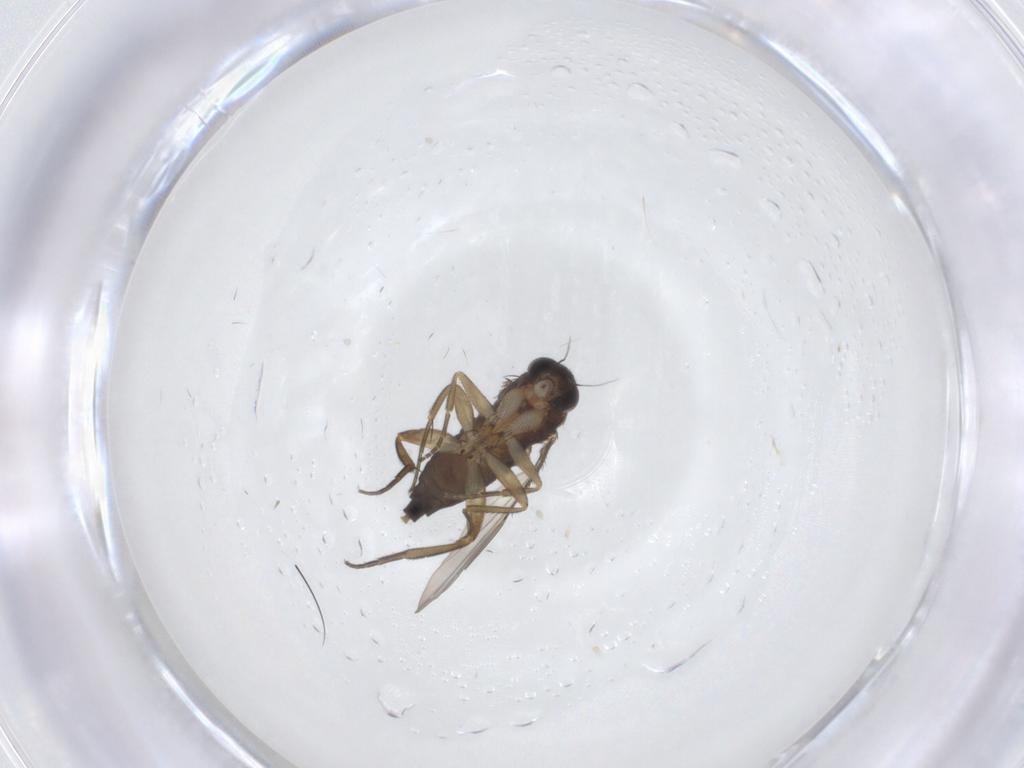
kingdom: Animalia
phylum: Arthropoda
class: Insecta
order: Diptera
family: Phoridae
